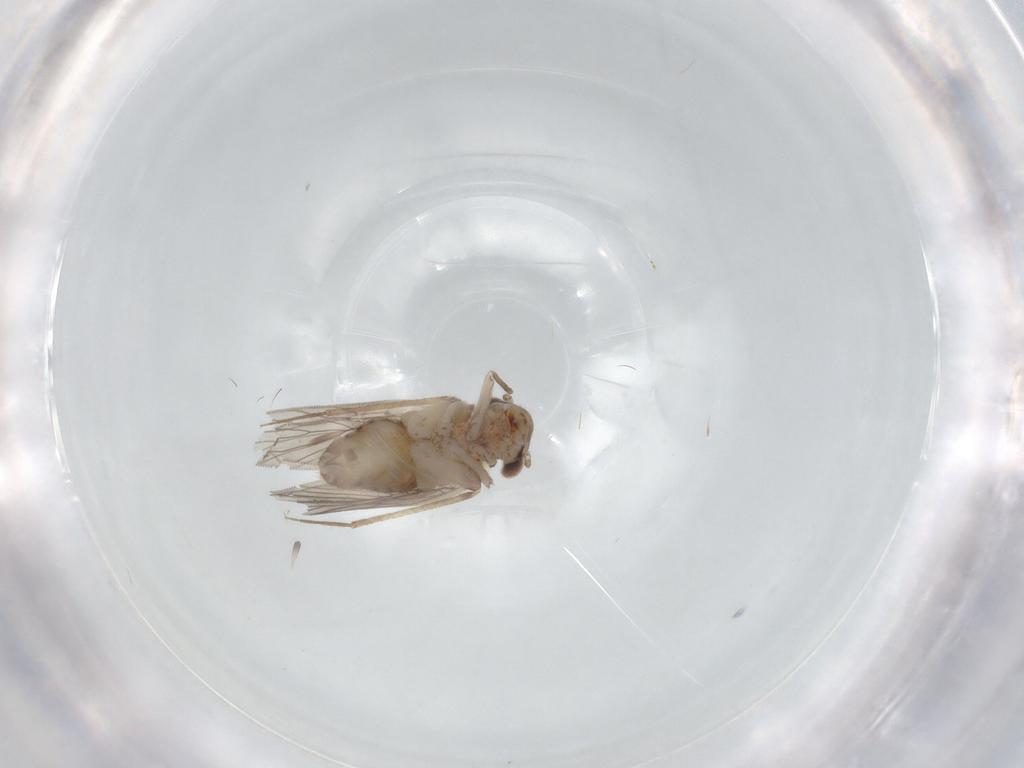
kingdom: Animalia
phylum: Arthropoda
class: Insecta
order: Psocodea
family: Lepidopsocidae
